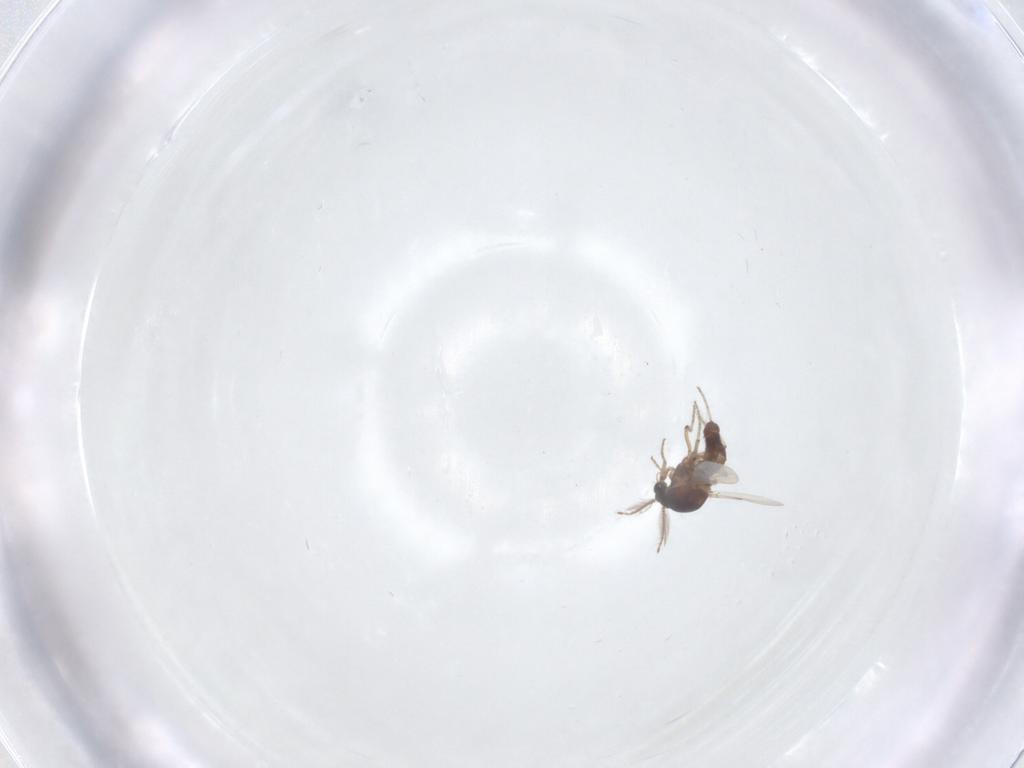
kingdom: Animalia
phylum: Arthropoda
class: Insecta
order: Diptera
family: Ceratopogonidae
